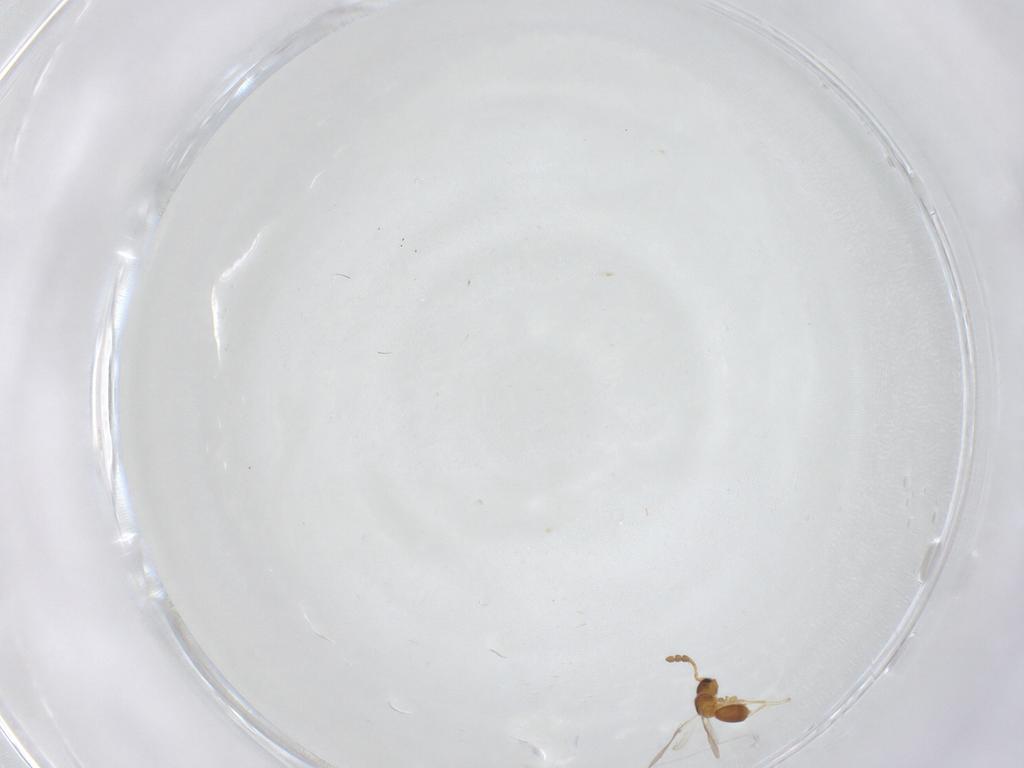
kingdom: Animalia
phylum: Arthropoda
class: Insecta
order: Hymenoptera
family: Diapriidae
